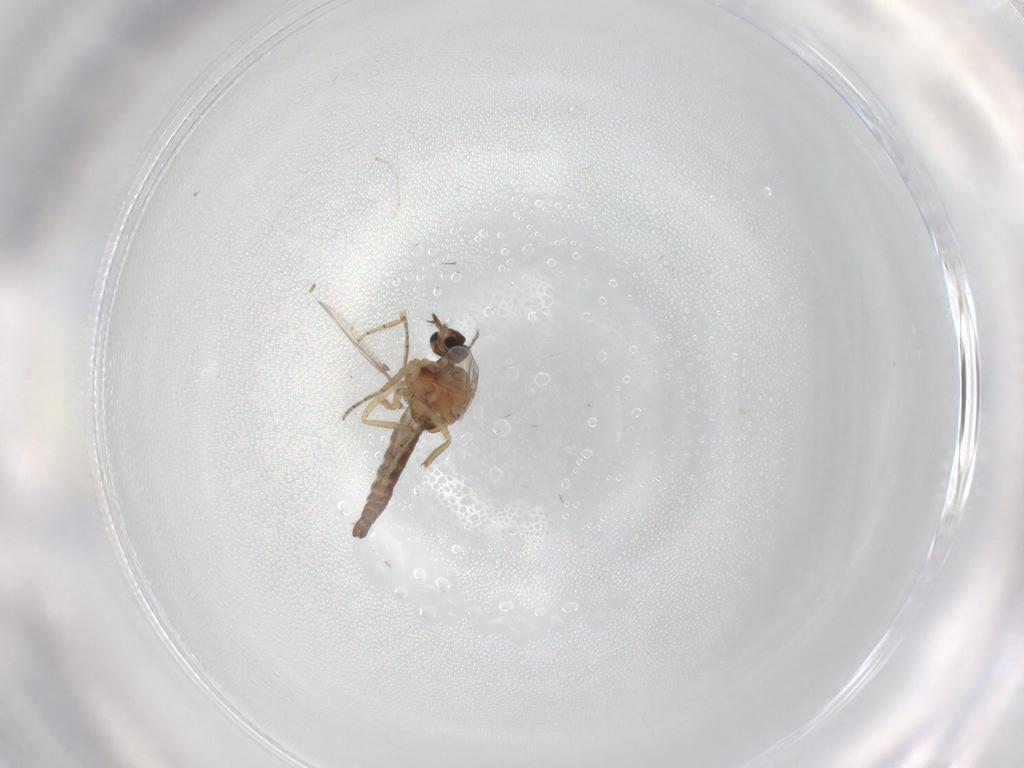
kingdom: Animalia
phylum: Arthropoda
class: Insecta
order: Diptera
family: Ceratopogonidae
